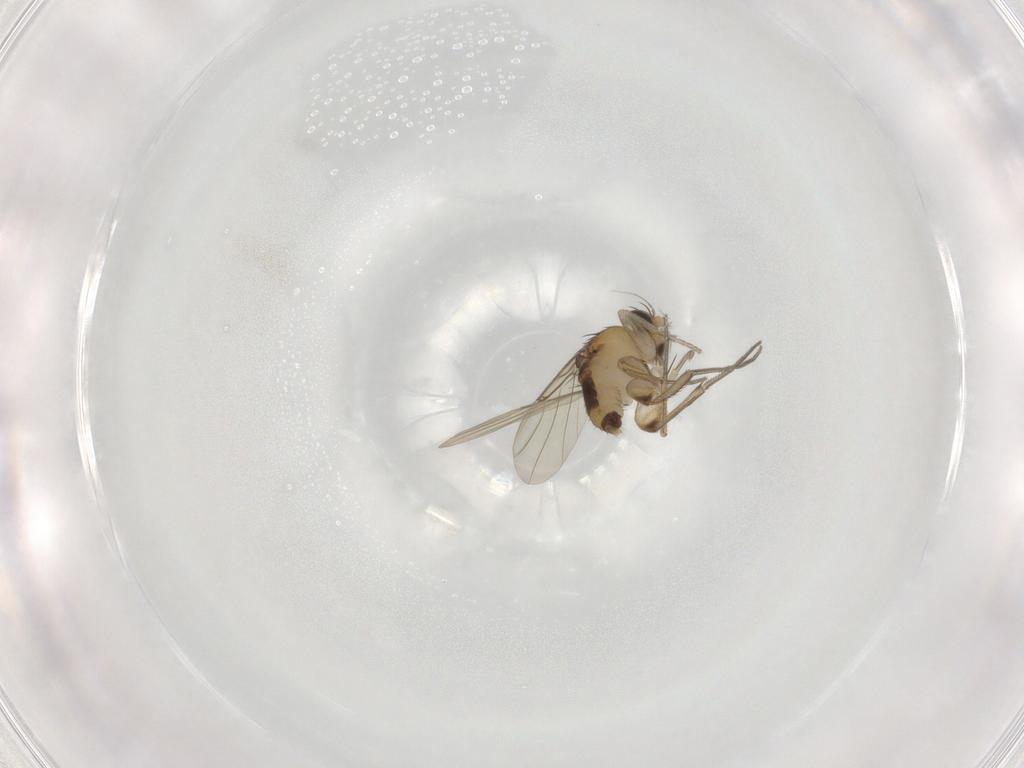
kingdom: Animalia
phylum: Arthropoda
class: Insecta
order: Diptera
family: Phoridae
